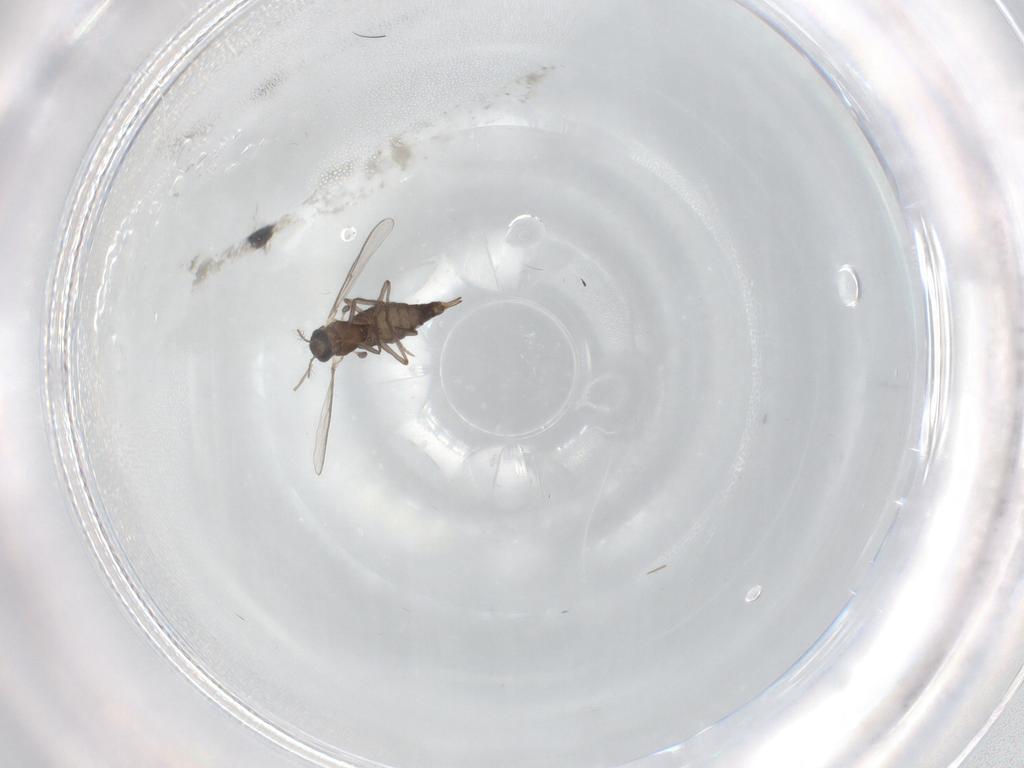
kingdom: Animalia
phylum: Arthropoda
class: Insecta
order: Diptera
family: Chironomidae
